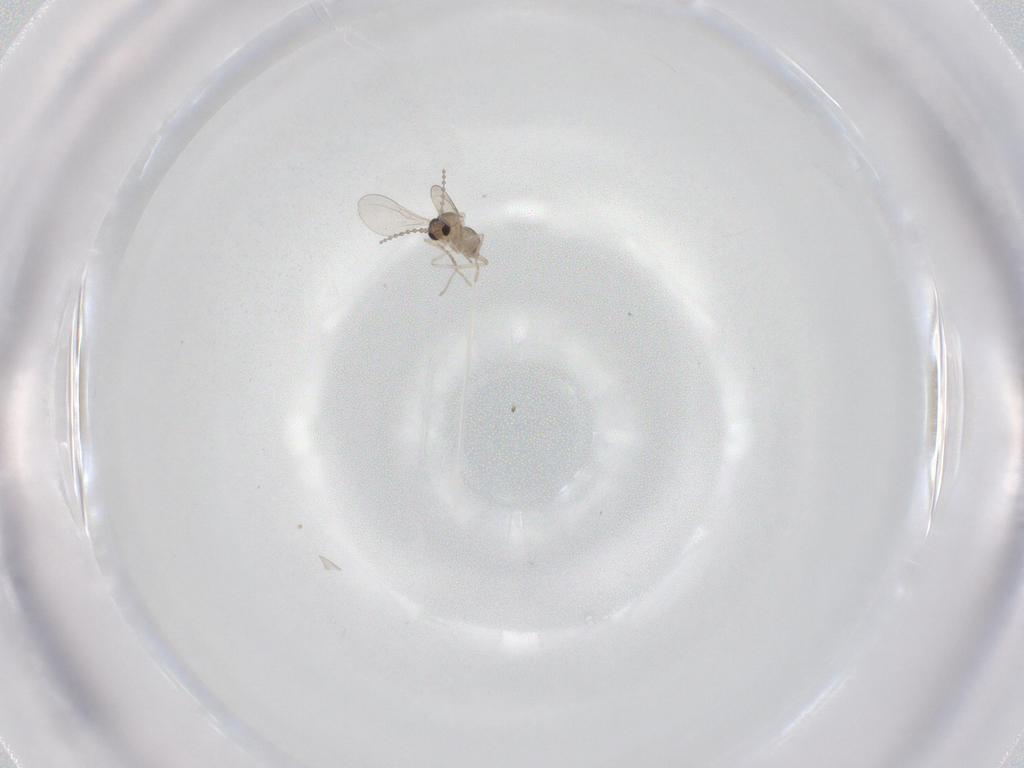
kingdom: Animalia
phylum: Arthropoda
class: Insecta
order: Diptera
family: Cecidomyiidae
